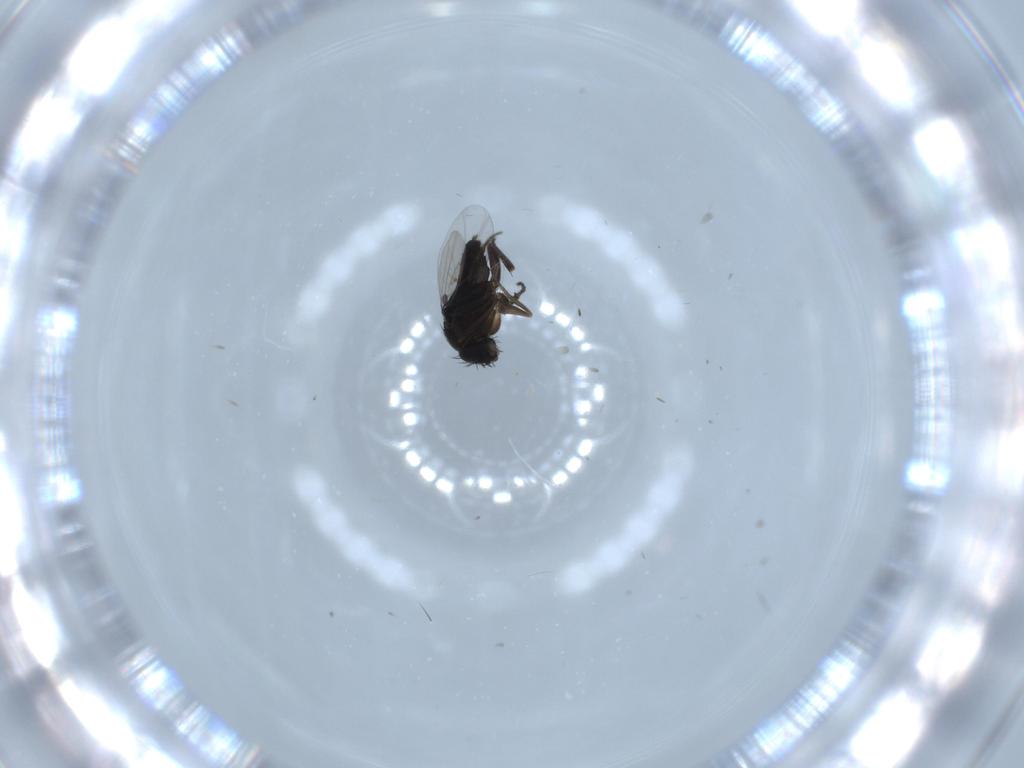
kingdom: Animalia
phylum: Arthropoda
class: Insecta
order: Diptera
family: Phoridae
